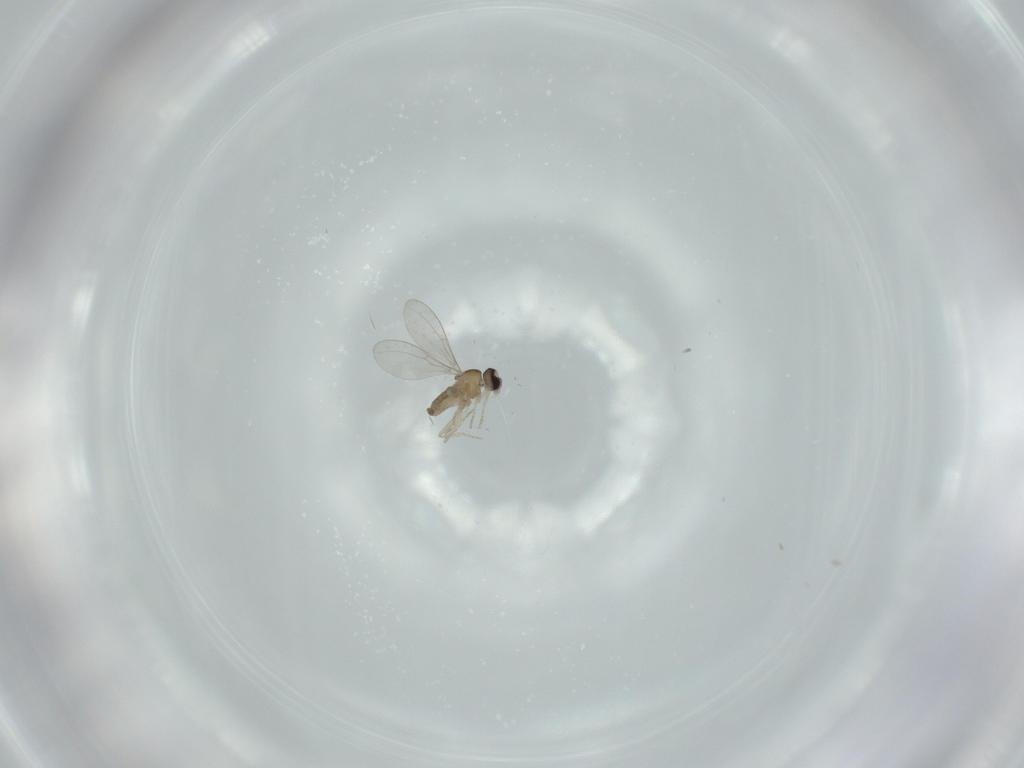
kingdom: Animalia
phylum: Arthropoda
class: Insecta
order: Diptera
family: Cecidomyiidae
